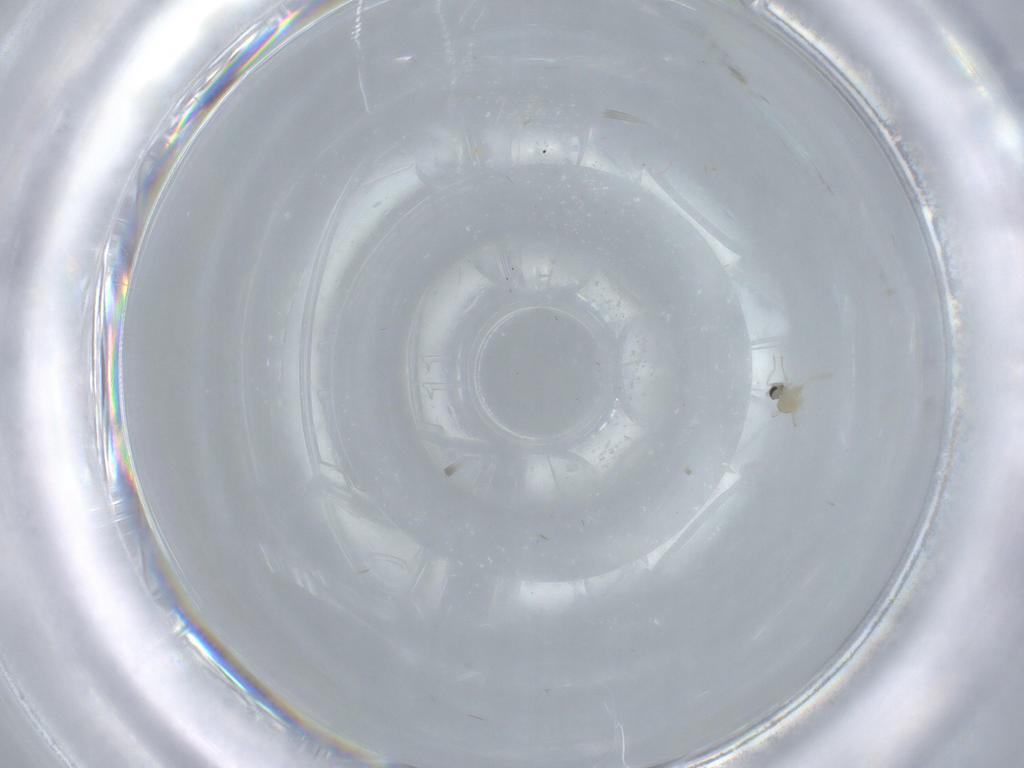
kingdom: Animalia
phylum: Arthropoda
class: Insecta
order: Diptera
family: Cecidomyiidae
